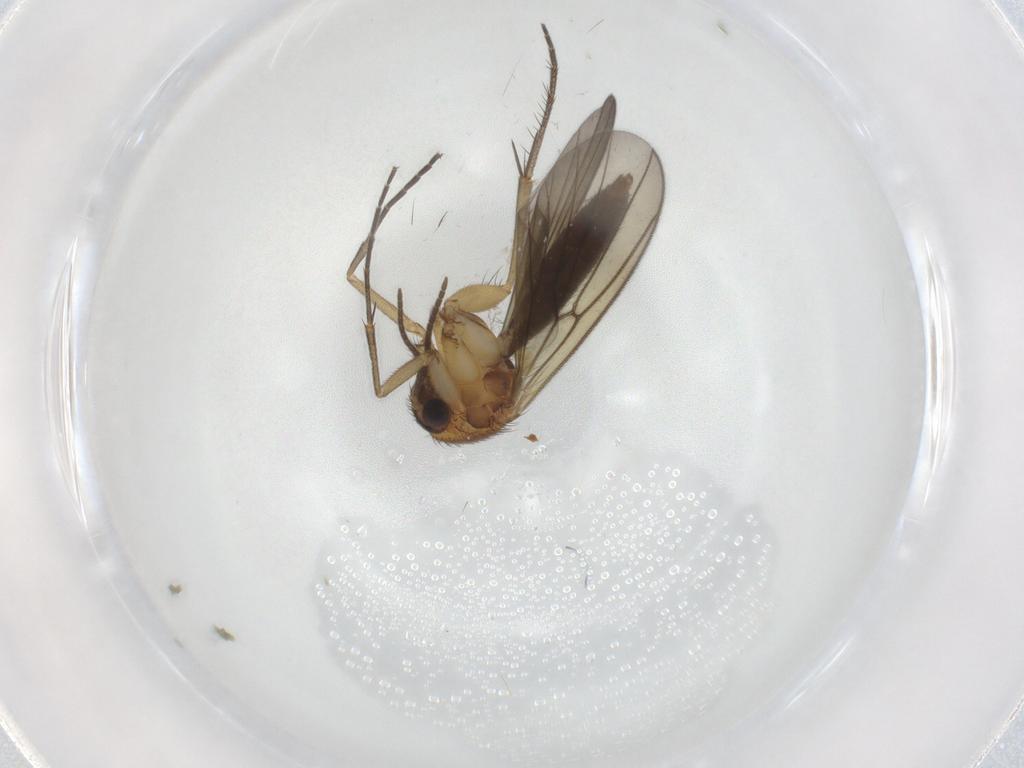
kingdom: Animalia
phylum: Arthropoda
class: Insecta
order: Diptera
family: Mycetophilidae
